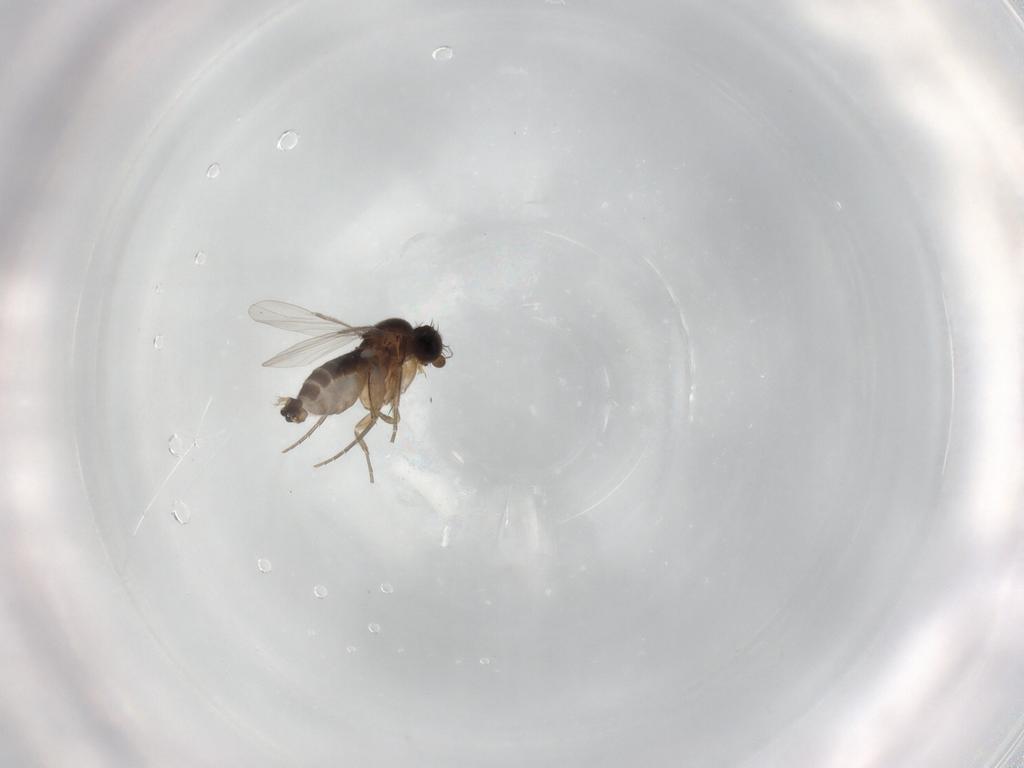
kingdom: Animalia
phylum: Arthropoda
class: Insecta
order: Diptera
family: Phoridae
